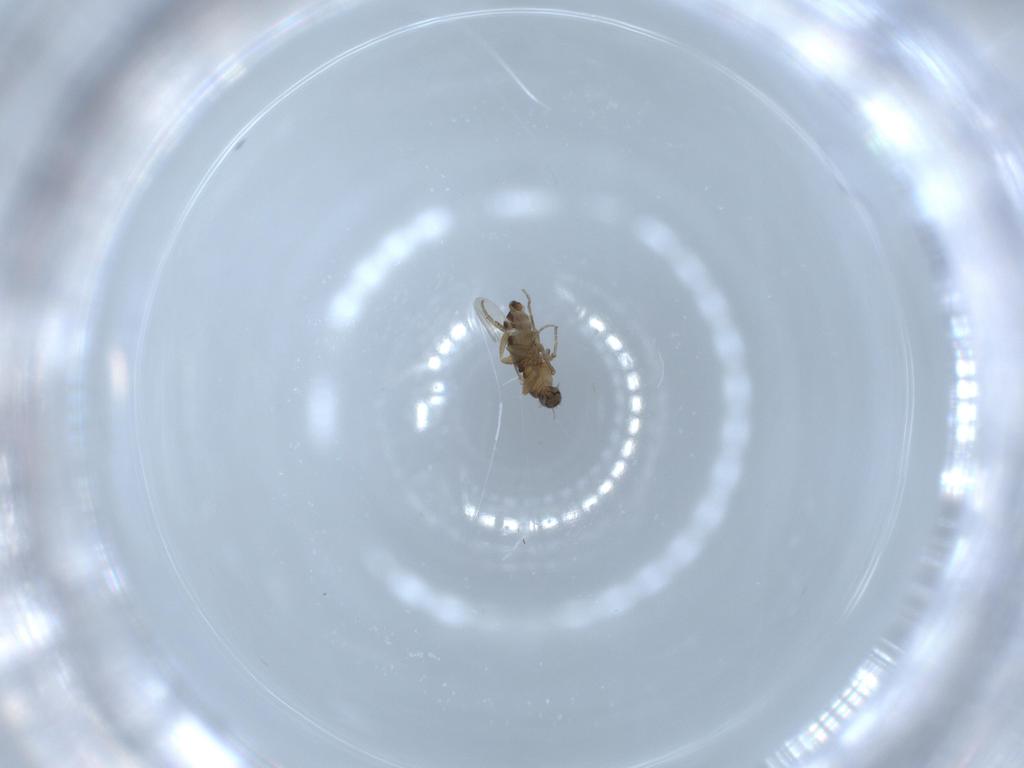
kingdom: Animalia
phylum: Arthropoda
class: Insecta
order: Diptera
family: Phoridae
